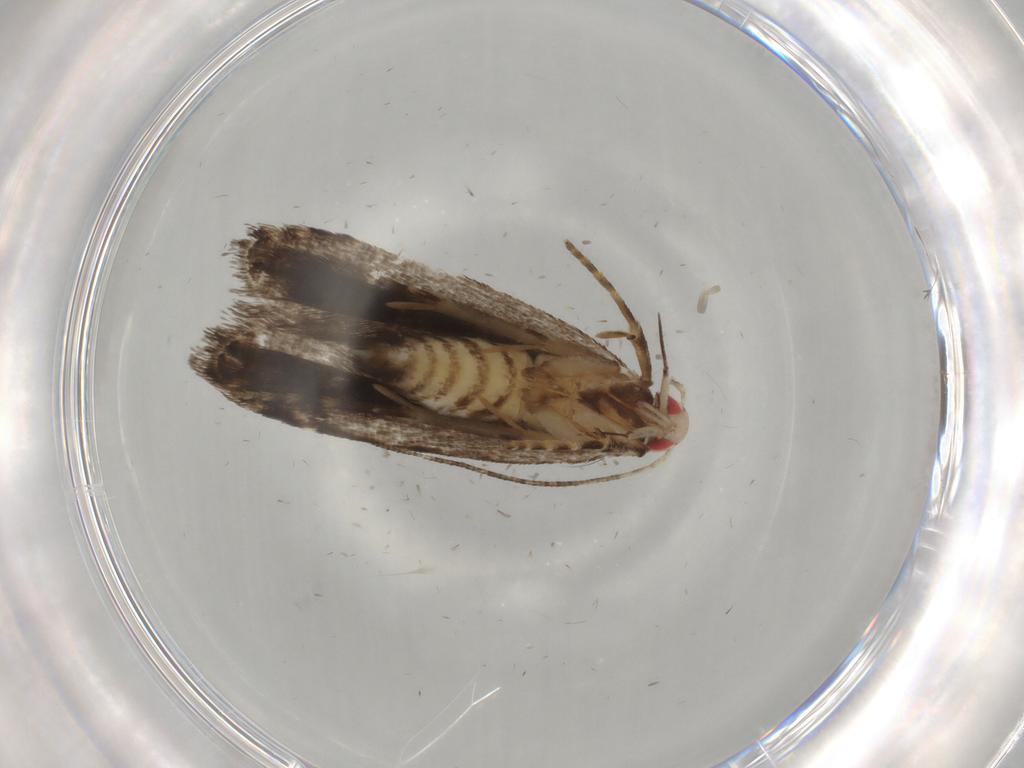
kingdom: Animalia
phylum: Arthropoda
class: Insecta
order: Lepidoptera
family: Gelechiidae
